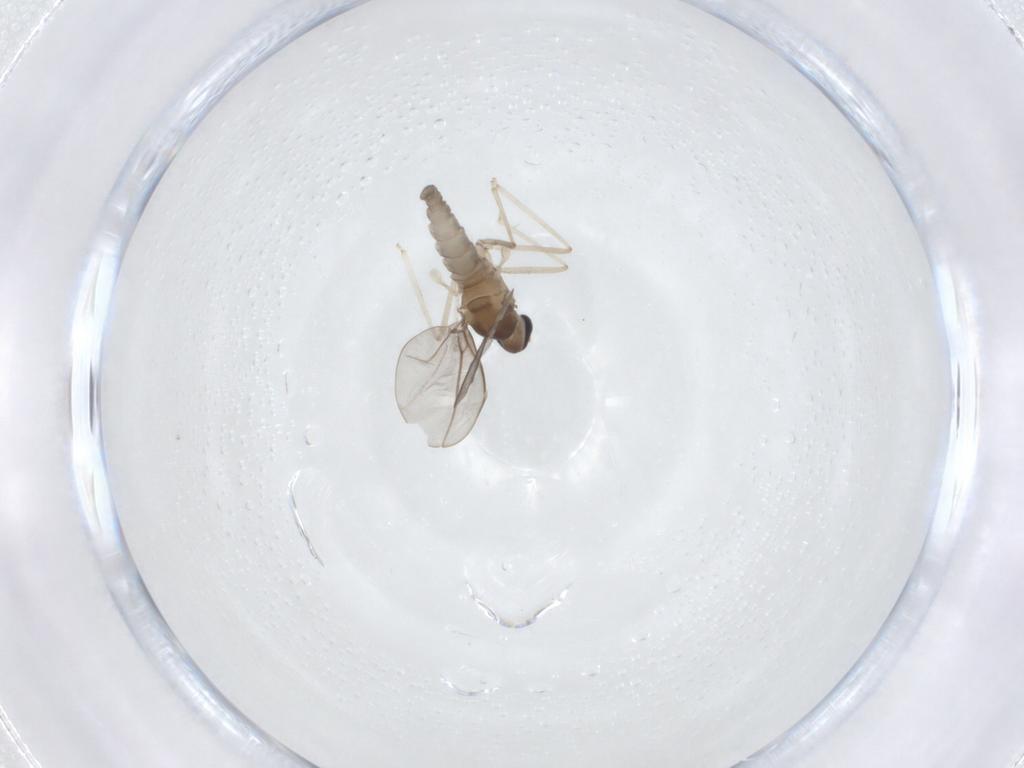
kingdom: Animalia
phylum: Arthropoda
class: Insecta
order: Diptera
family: Cecidomyiidae
